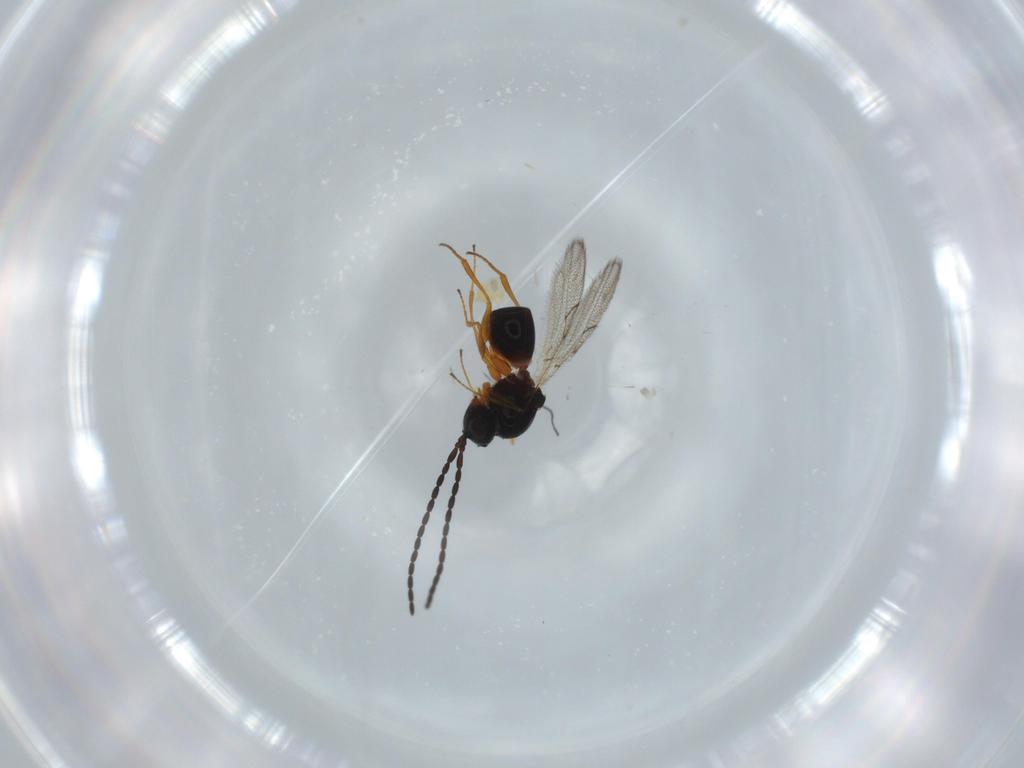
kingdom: Animalia
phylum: Arthropoda
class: Insecta
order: Hymenoptera
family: Figitidae
